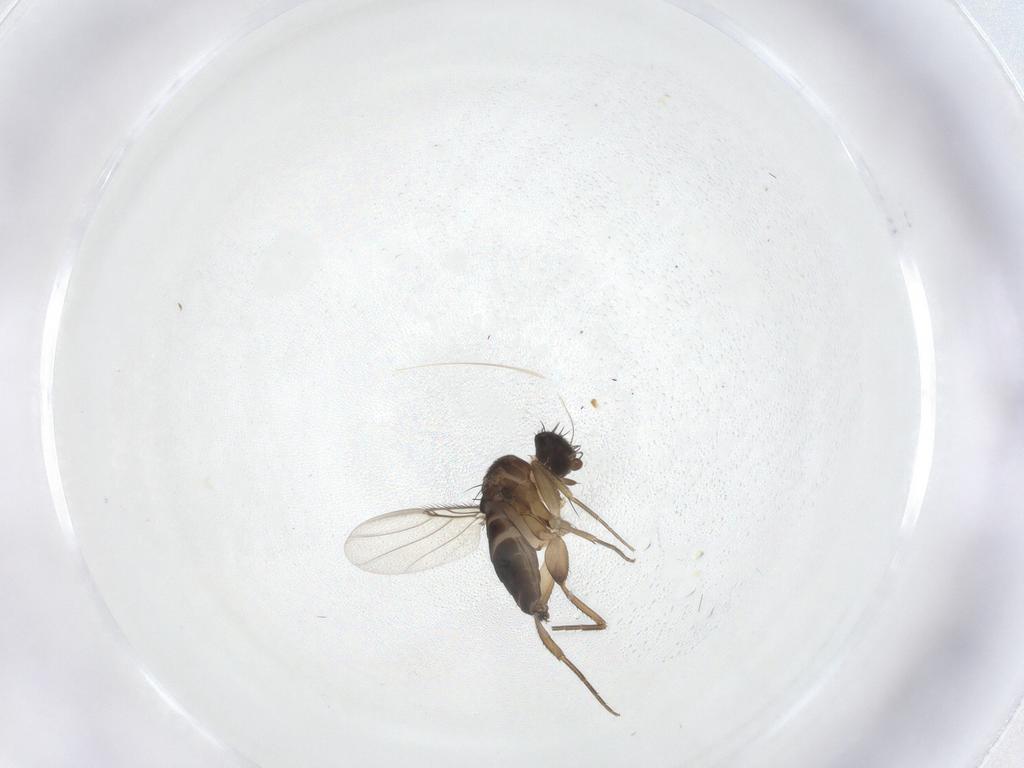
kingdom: Animalia
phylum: Arthropoda
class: Insecta
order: Diptera
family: Phoridae
